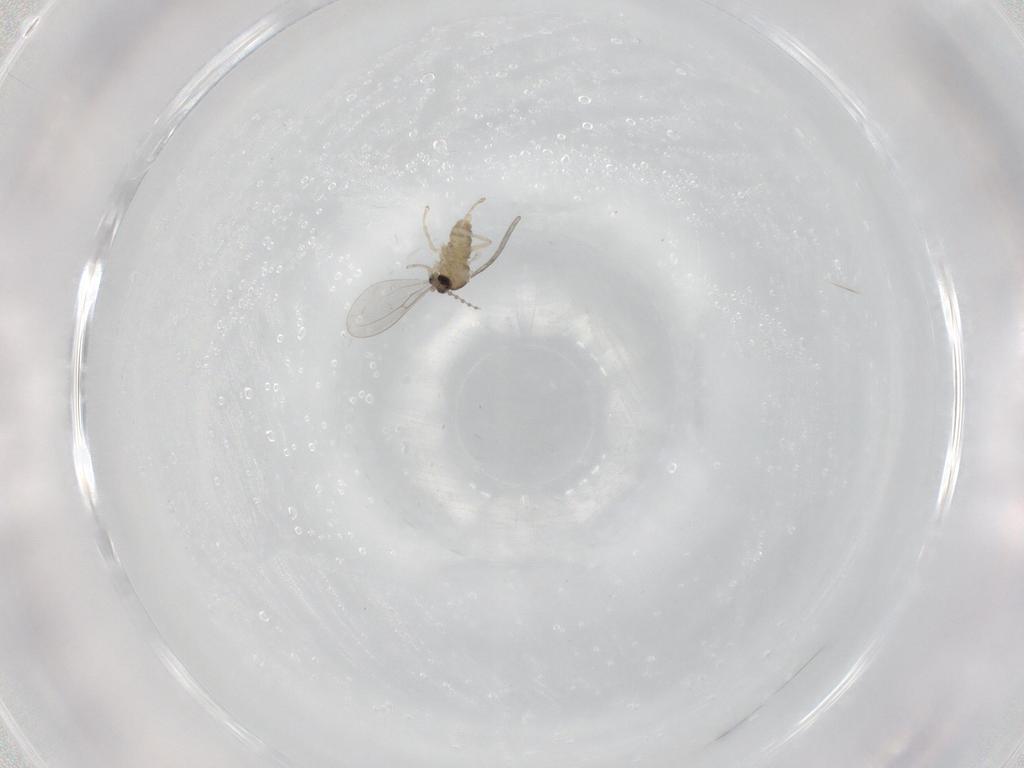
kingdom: Animalia
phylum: Arthropoda
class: Insecta
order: Diptera
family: Cecidomyiidae
